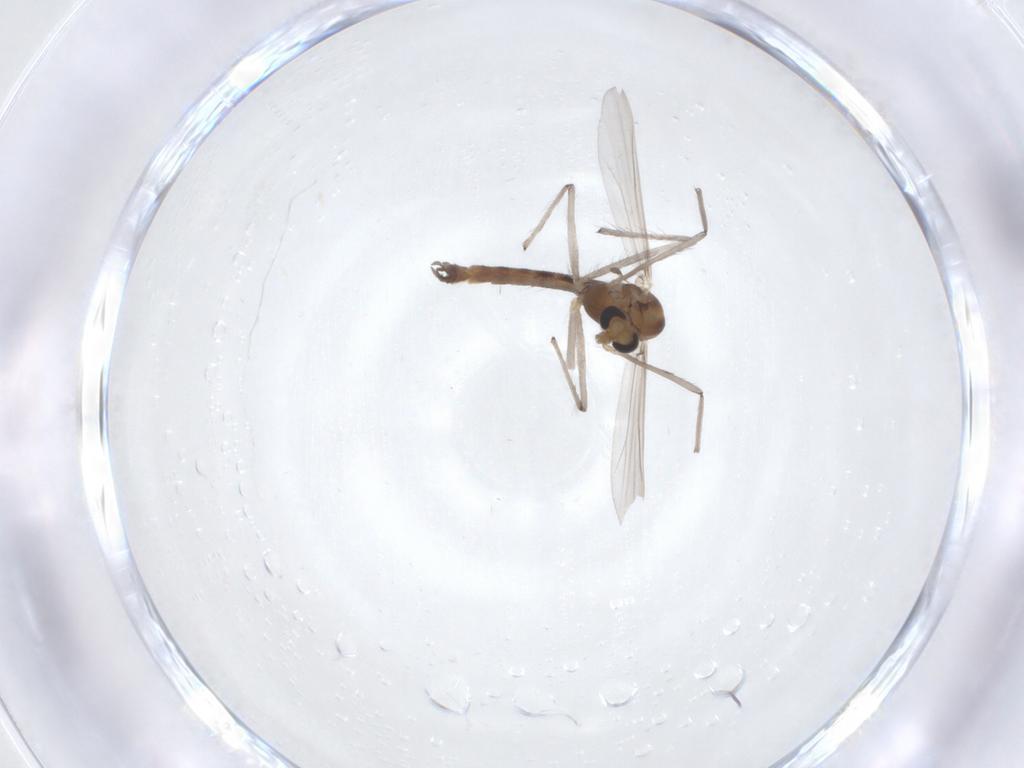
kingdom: Animalia
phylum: Arthropoda
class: Insecta
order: Diptera
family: Chironomidae
